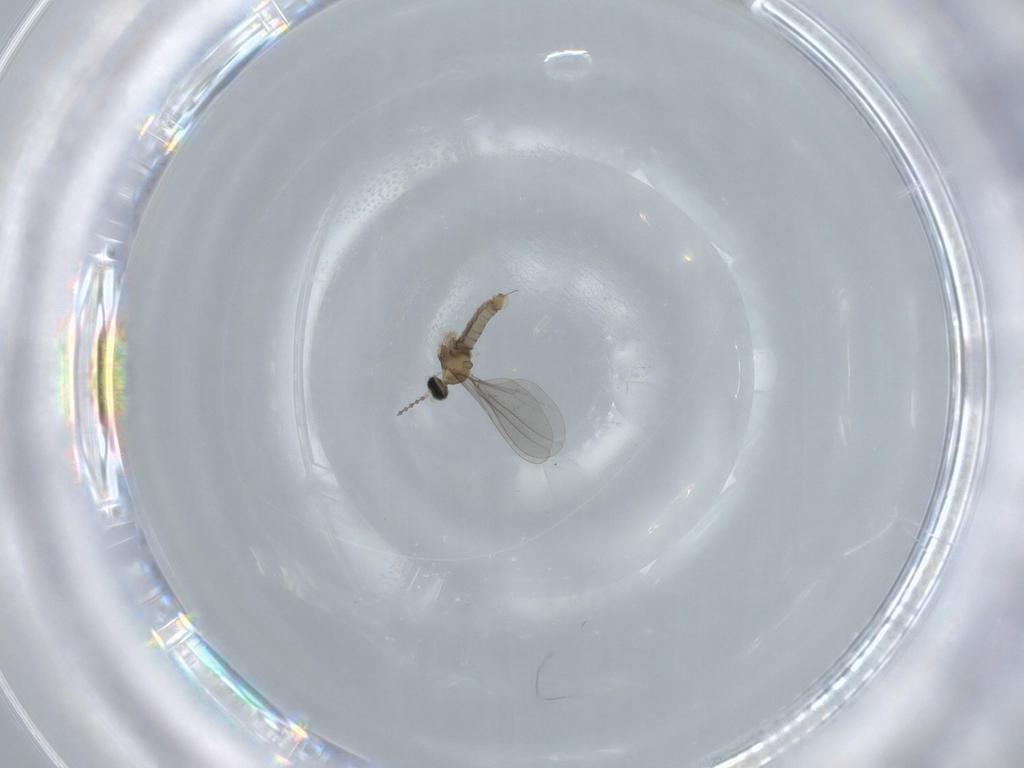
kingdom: Animalia
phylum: Arthropoda
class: Insecta
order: Diptera
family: Cecidomyiidae
